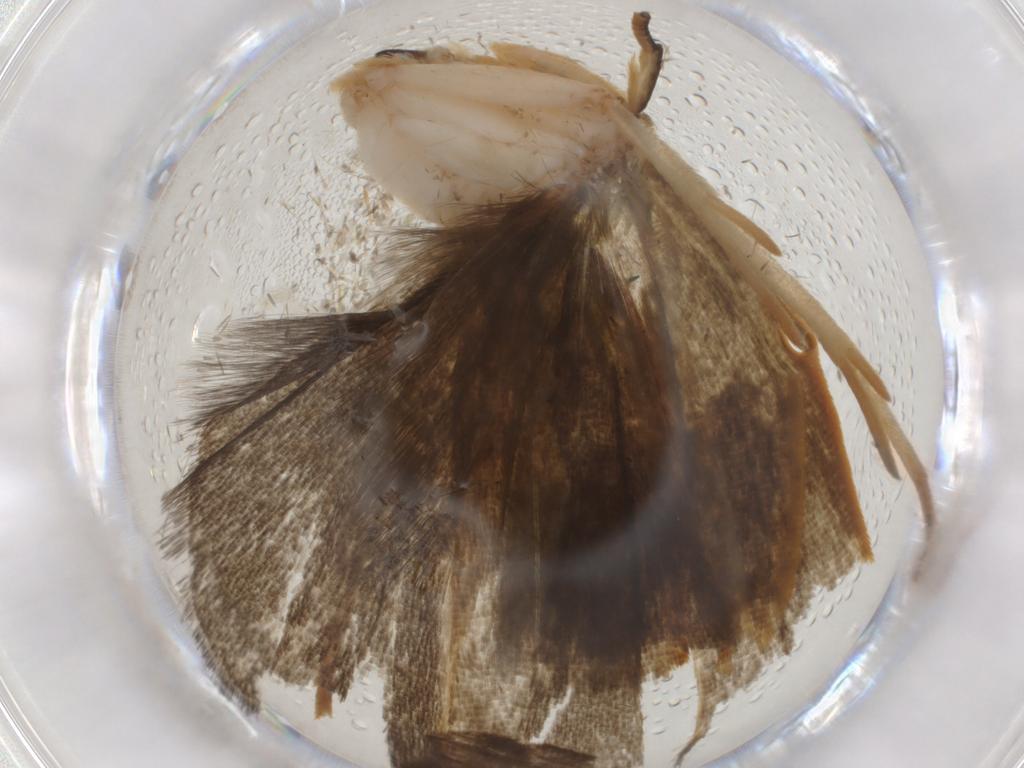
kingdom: Animalia
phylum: Arthropoda
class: Insecta
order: Lepidoptera
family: Depressariidae
